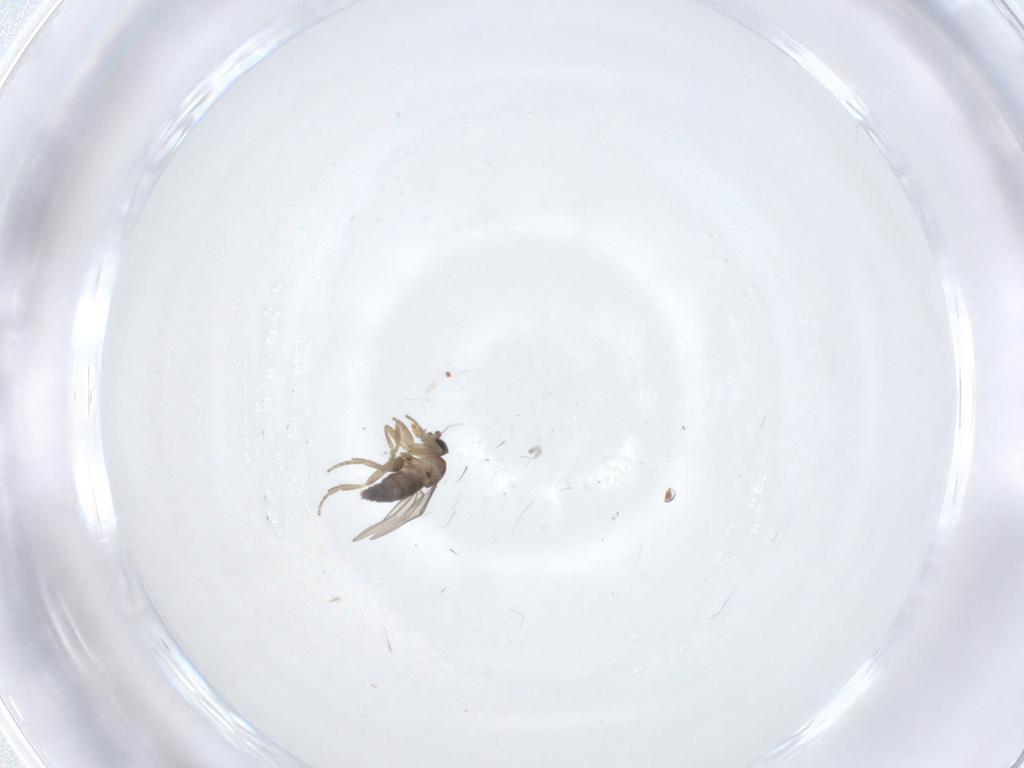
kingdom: Animalia
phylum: Arthropoda
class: Insecta
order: Diptera
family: Phoridae
